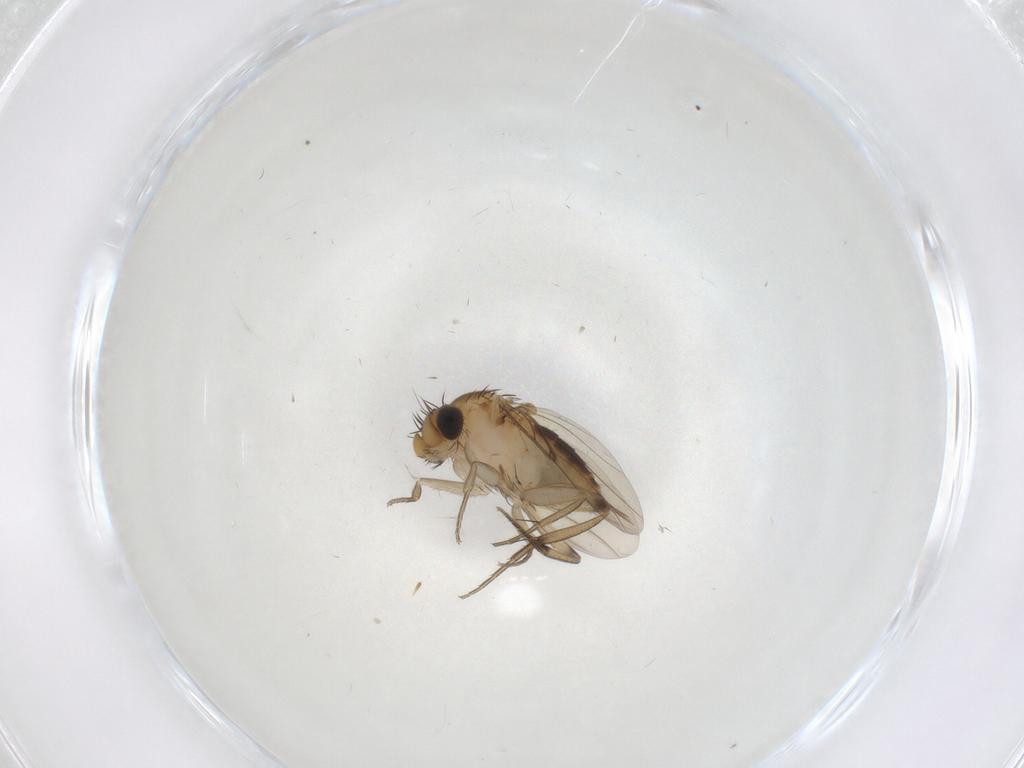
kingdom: Animalia
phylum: Arthropoda
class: Insecta
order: Diptera
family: Phoridae
